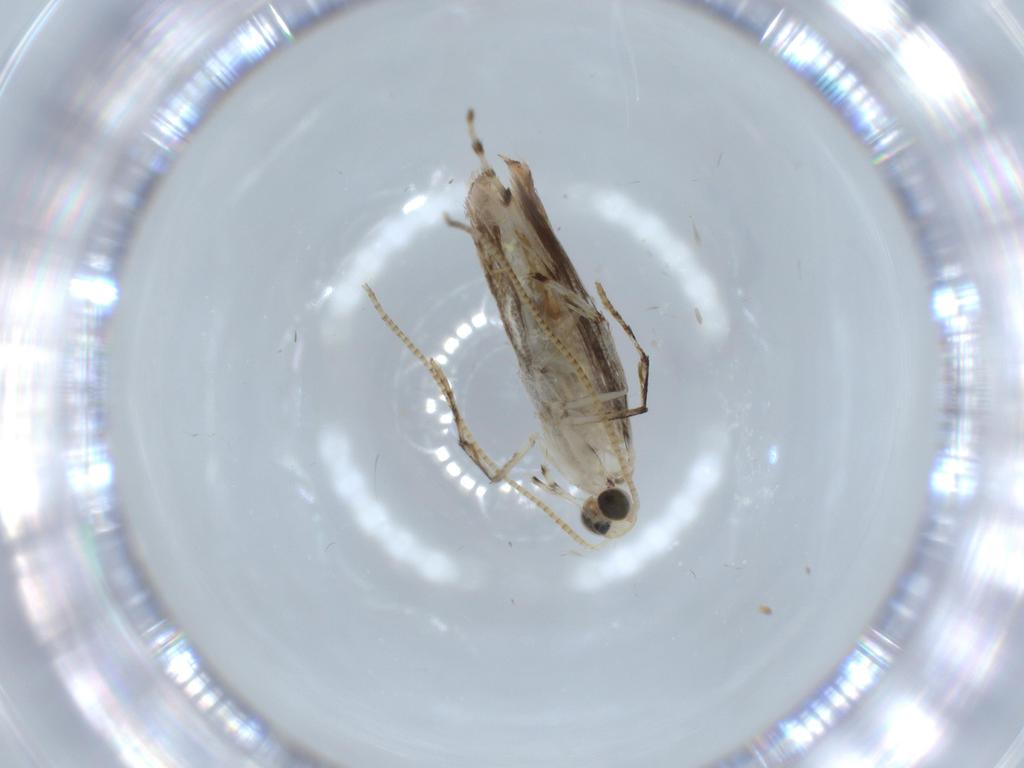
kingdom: Animalia
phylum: Arthropoda
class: Insecta
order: Lepidoptera
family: Gracillariidae
